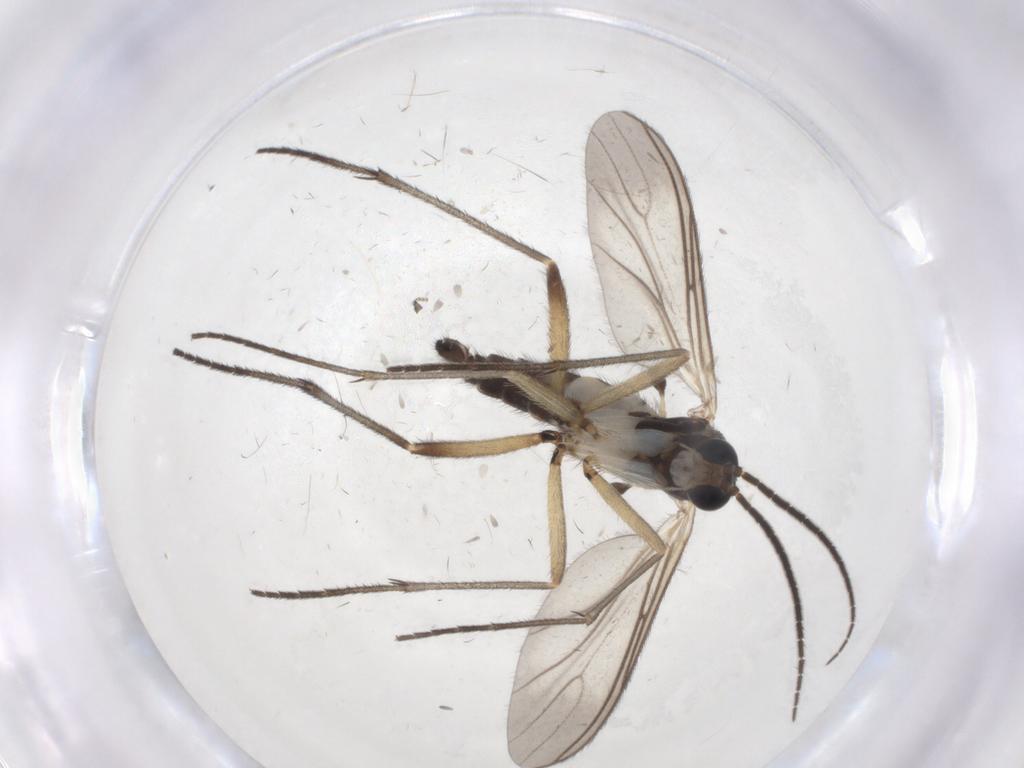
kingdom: Animalia
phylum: Arthropoda
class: Insecta
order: Diptera
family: Sciaridae
